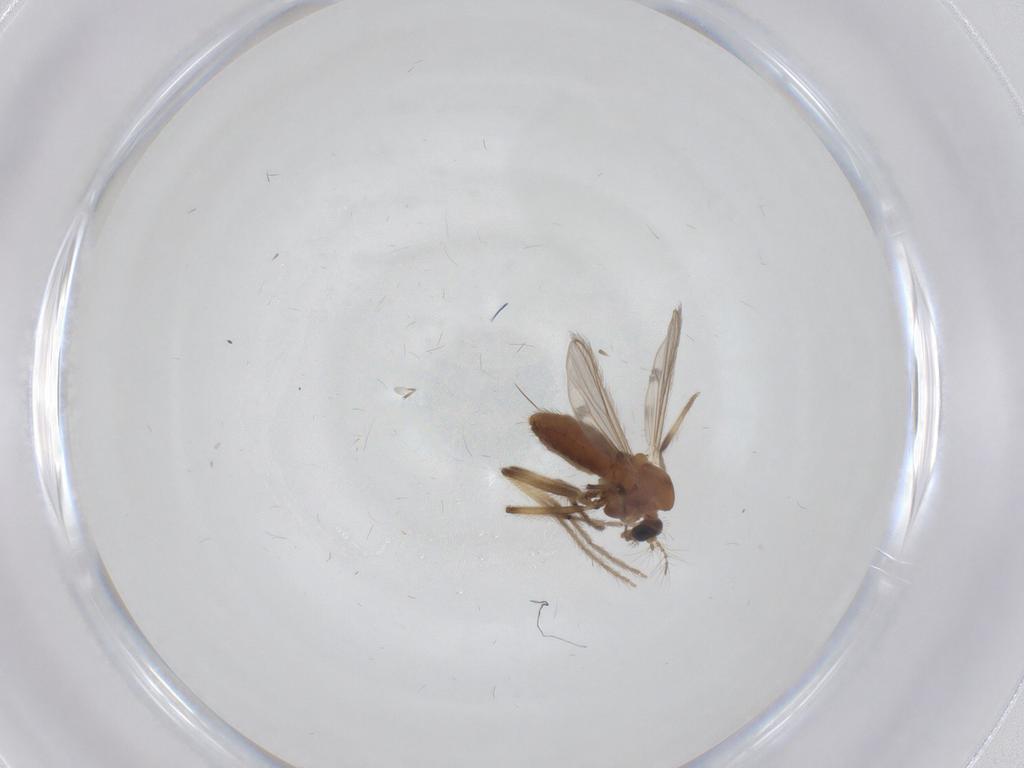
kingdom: Animalia
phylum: Arthropoda
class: Insecta
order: Diptera
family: Chironomidae
